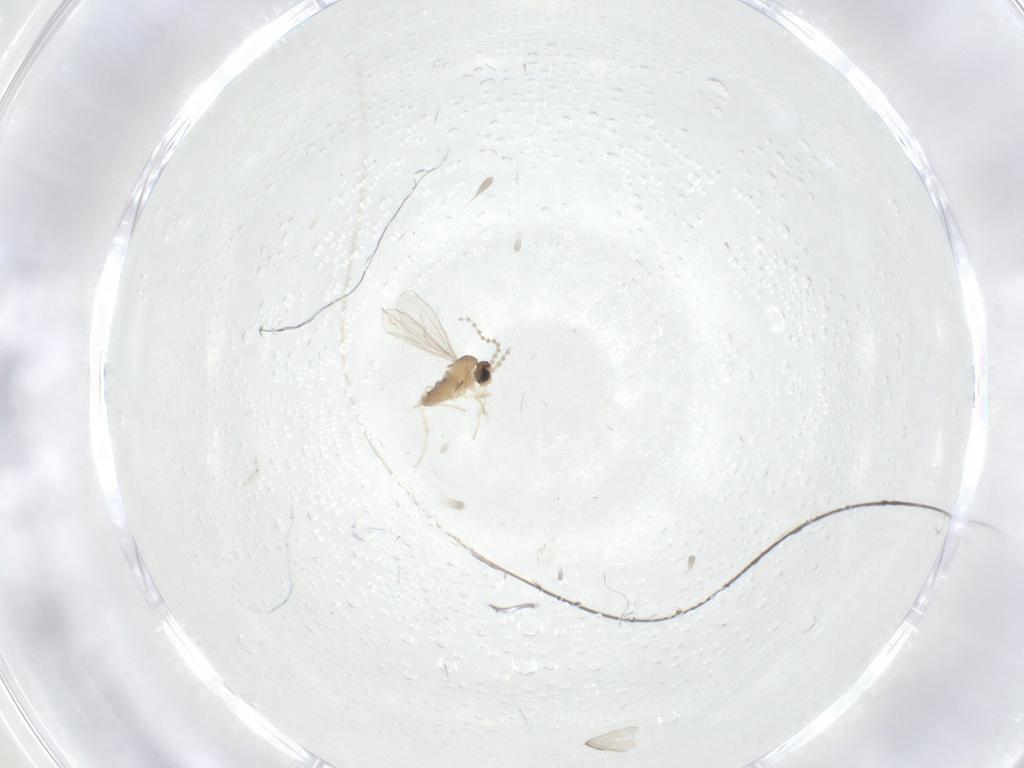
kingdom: Animalia
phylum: Arthropoda
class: Insecta
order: Diptera
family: Cecidomyiidae
